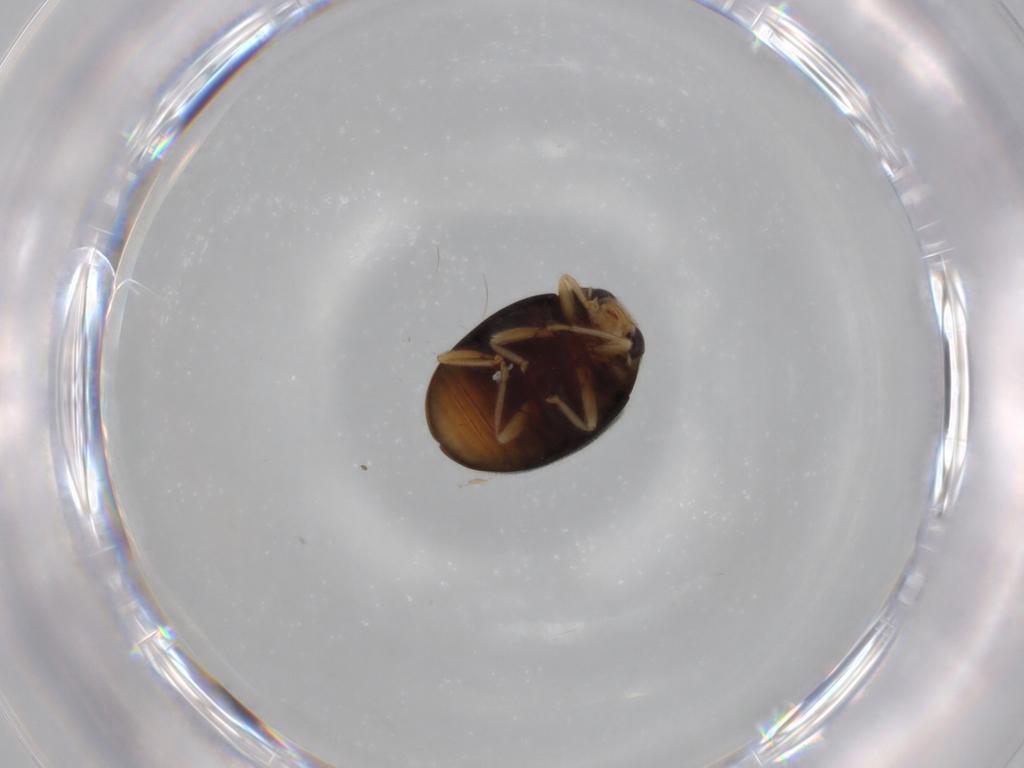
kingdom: Animalia
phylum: Arthropoda
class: Insecta
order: Coleoptera
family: Coccinellidae
